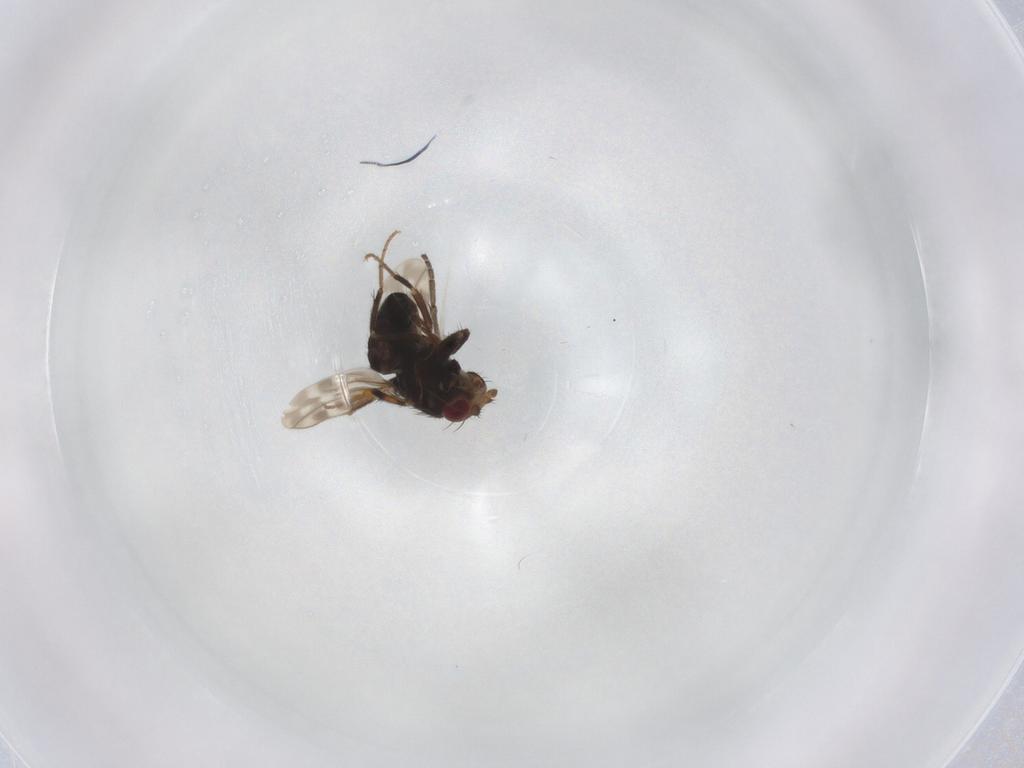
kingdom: Animalia
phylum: Arthropoda
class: Insecta
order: Diptera
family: Sphaeroceridae
